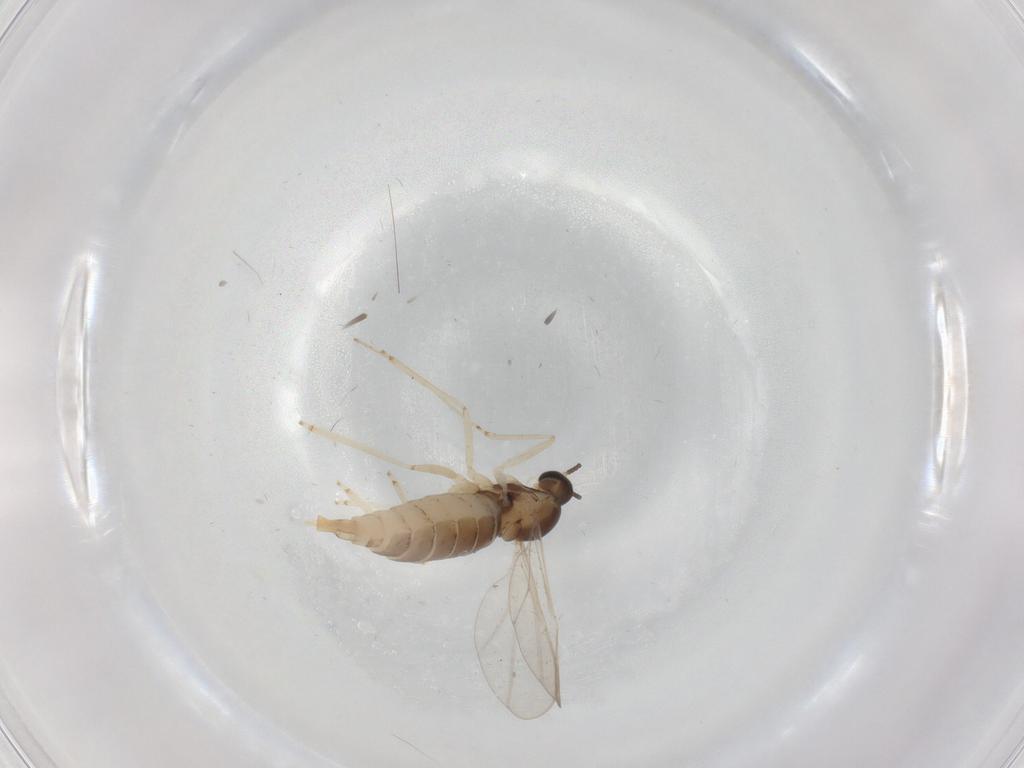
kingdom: Animalia
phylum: Arthropoda
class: Insecta
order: Diptera
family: Cecidomyiidae
